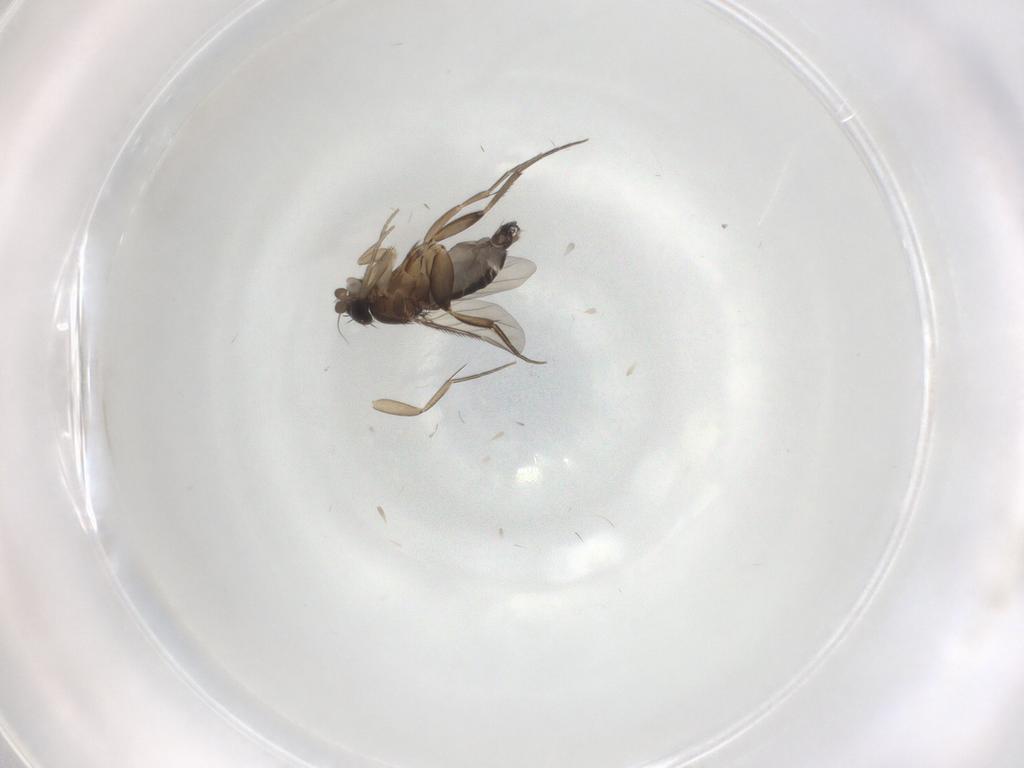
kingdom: Animalia
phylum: Arthropoda
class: Insecta
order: Diptera
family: Phoridae
